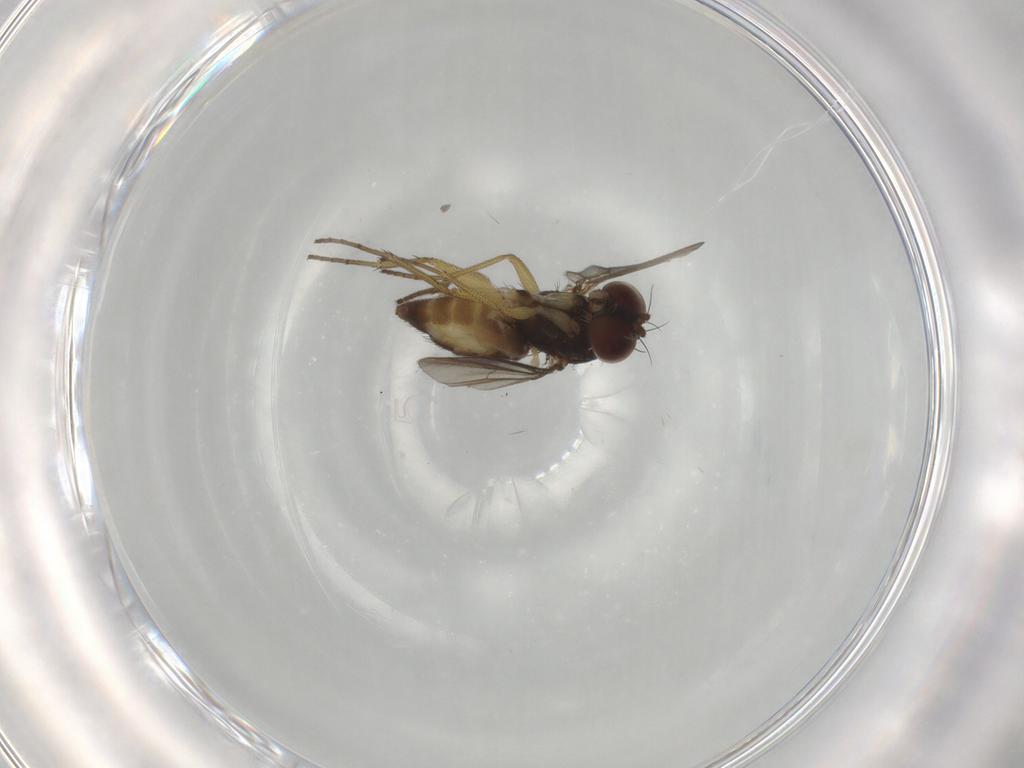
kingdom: Animalia
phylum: Arthropoda
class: Insecta
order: Diptera
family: Dolichopodidae
